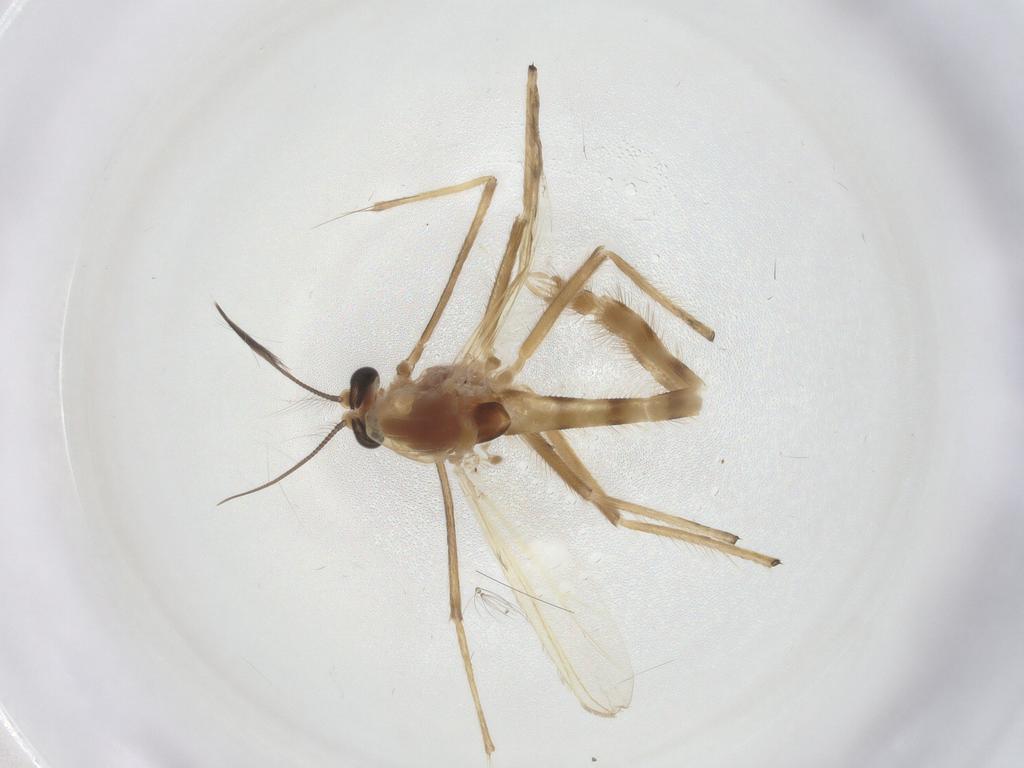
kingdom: Animalia
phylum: Arthropoda
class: Insecta
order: Diptera
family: Chironomidae
